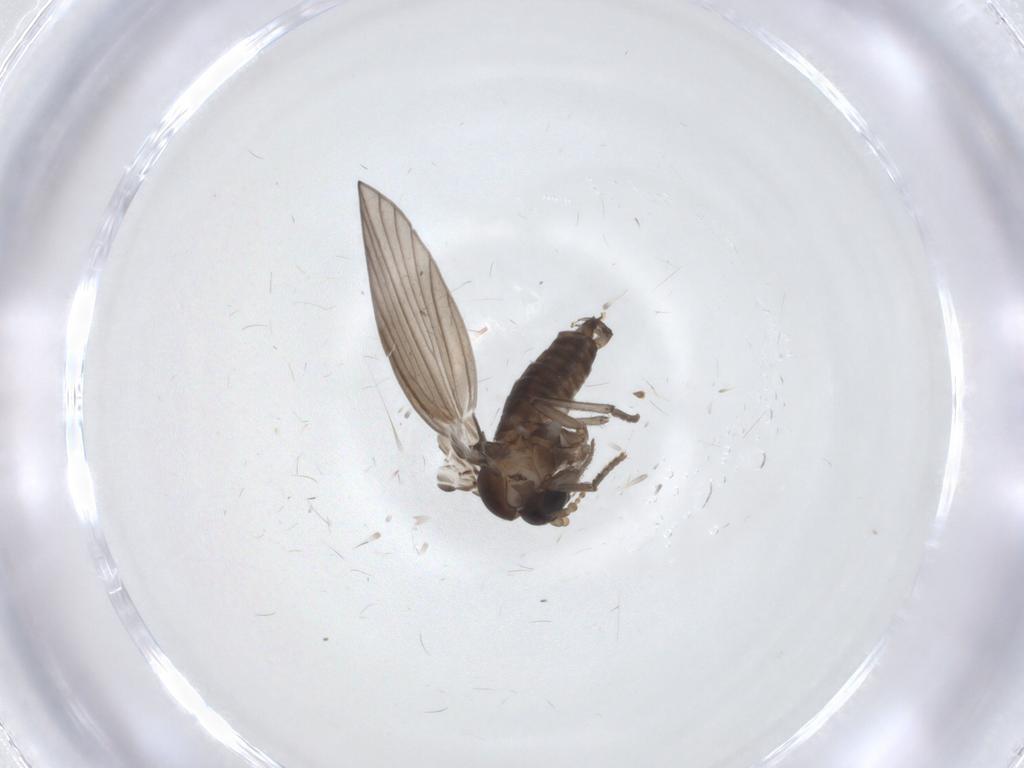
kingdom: Animalia
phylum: Arthropoda
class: Insecta
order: Diptera
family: Psychodidae
